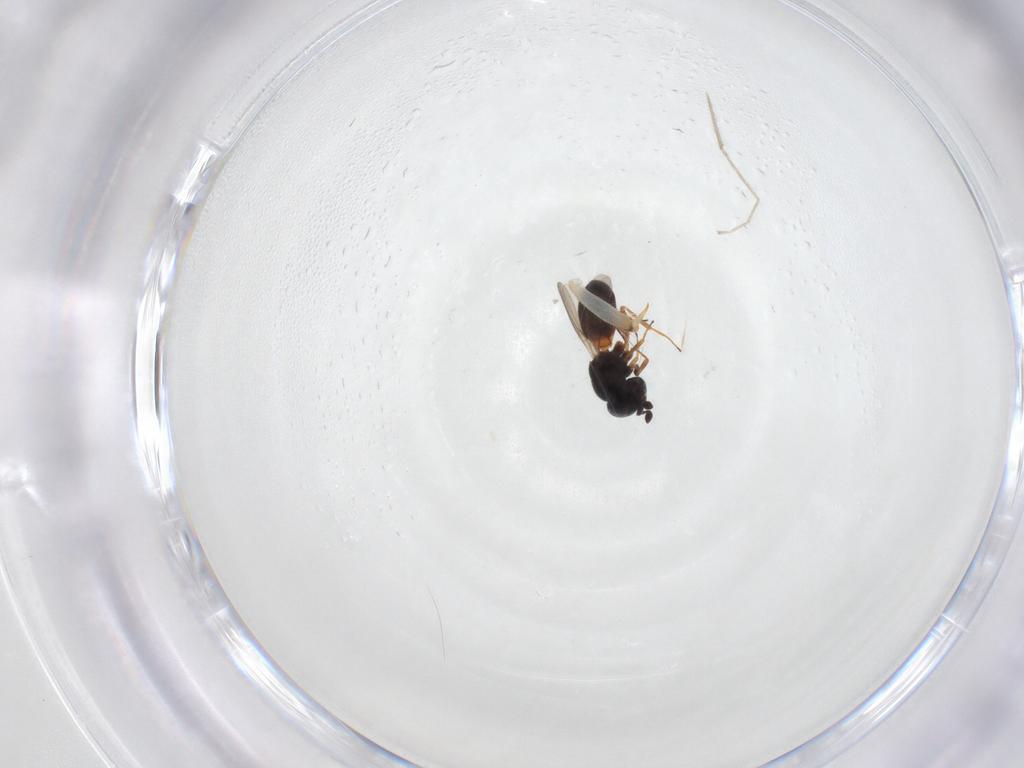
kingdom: Animalia
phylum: Arthropoda
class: Insecta
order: Hymenoptera
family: Scelionidae
